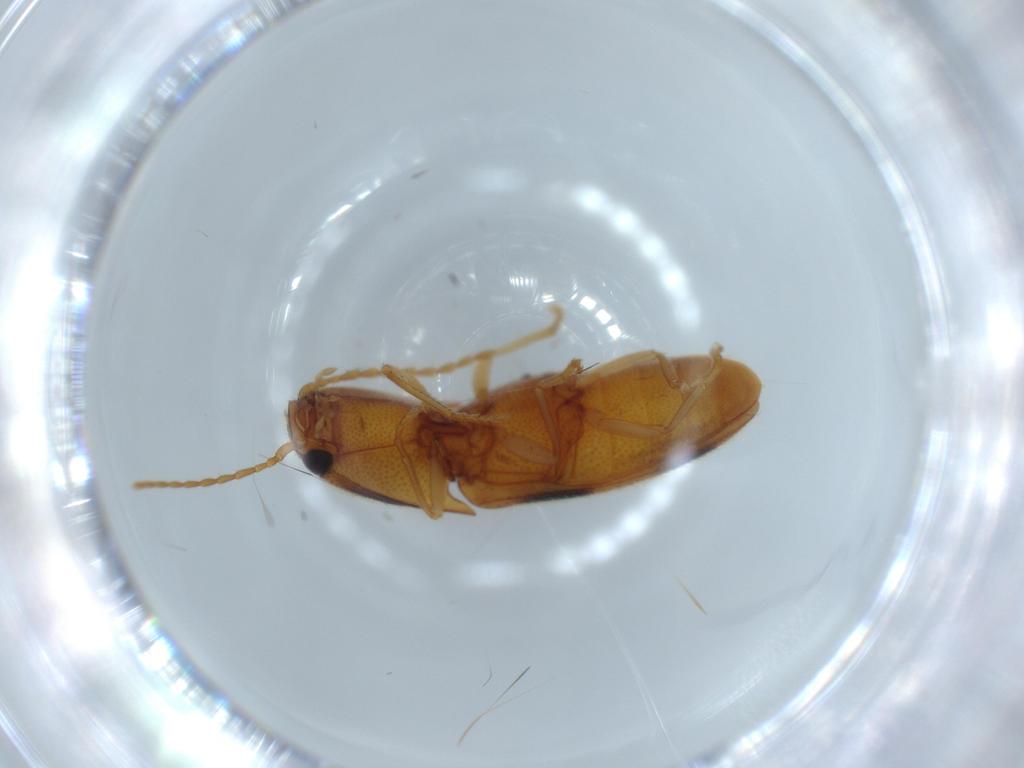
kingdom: Animalia
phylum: Arthropoda
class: Insecta
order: Coleoptera
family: Elateridae
